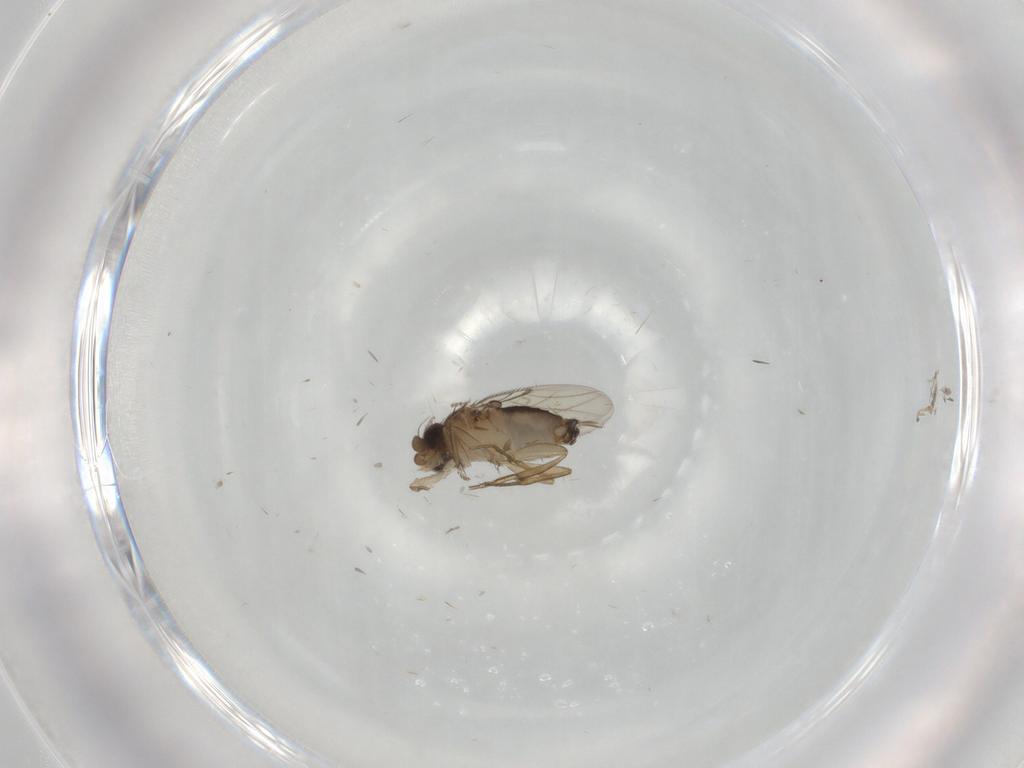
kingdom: Animalia
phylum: Arthropoda
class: Insecta
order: Diptera
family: Phoridae
